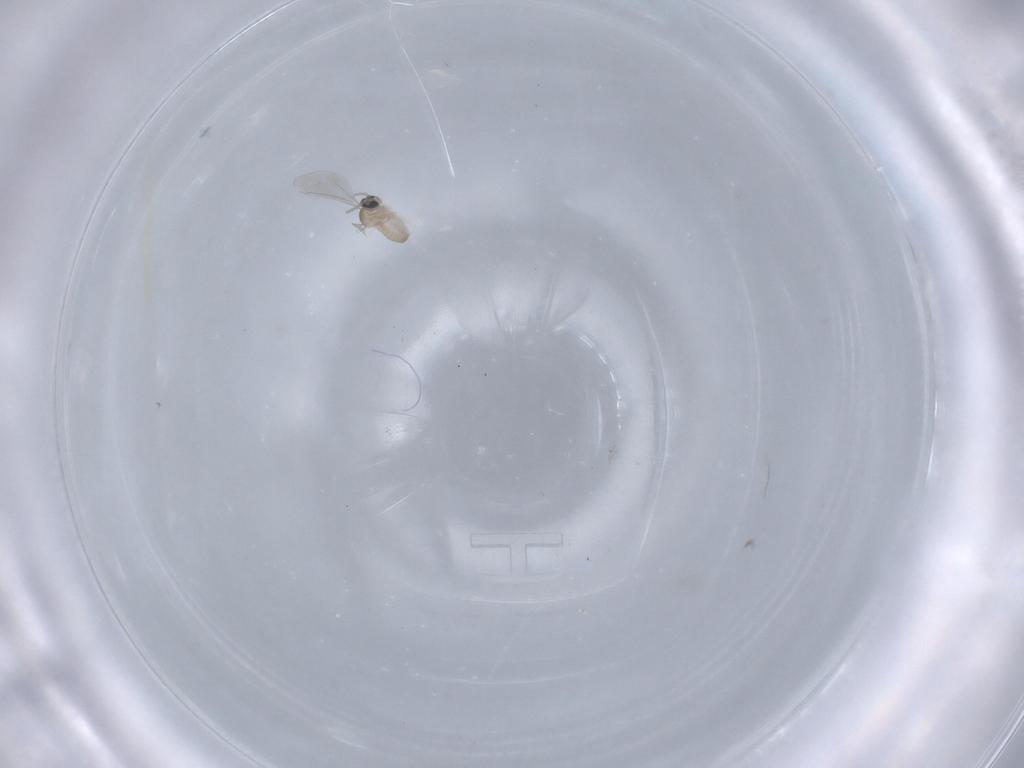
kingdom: Animalia
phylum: Arthropoda
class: Insecta
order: Diptera
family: Cecidomyiidae
